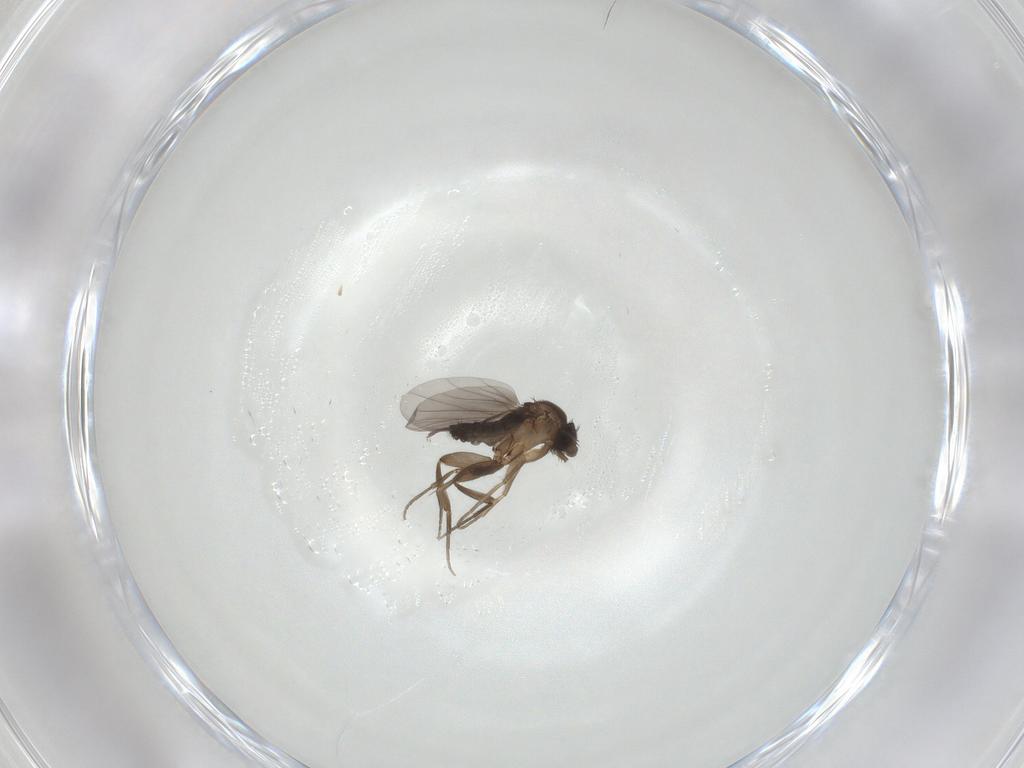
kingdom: Animalia
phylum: Arthropoda
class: Insecta
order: Diptera
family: Phoridae
